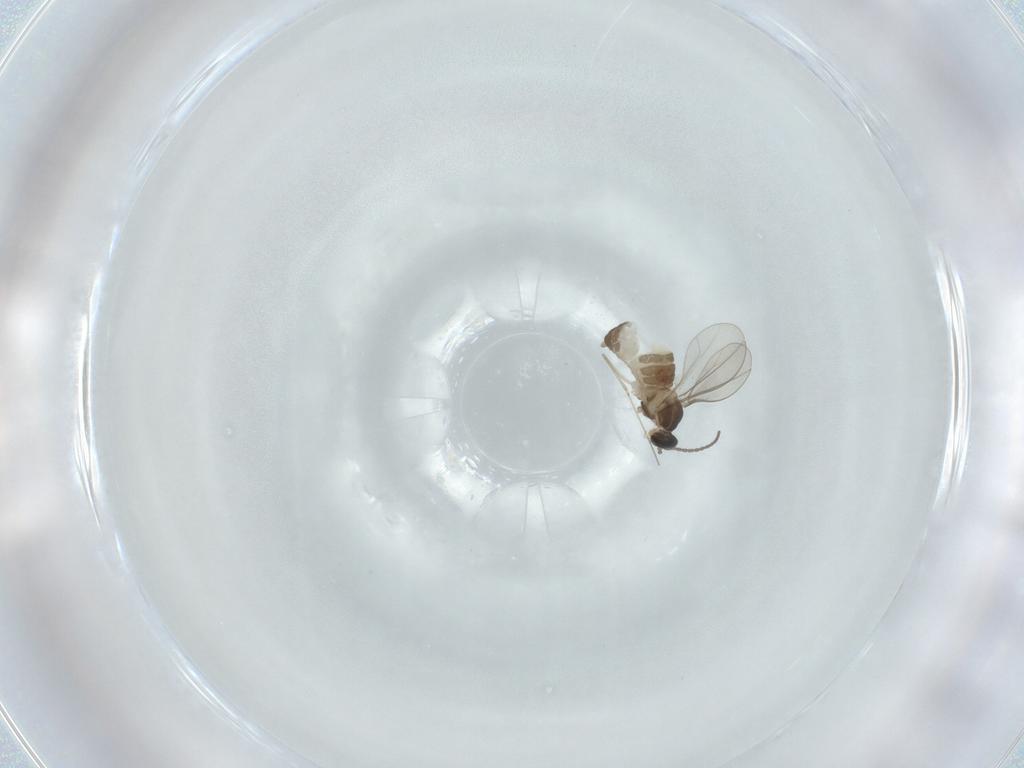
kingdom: Animalia
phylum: Arthropoda
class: Insecta
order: Diptera
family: Cecidomyiidae
